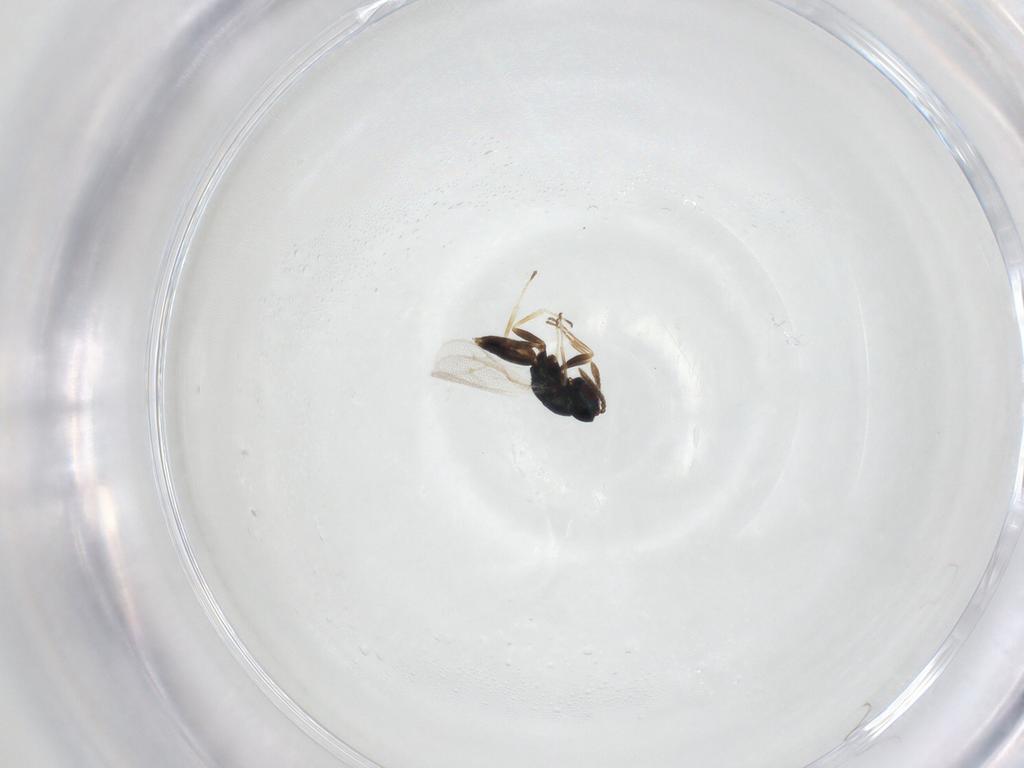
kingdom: Animalia
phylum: Arthropoda
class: Insecta
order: Hymenoptera
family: Pteromalidae
